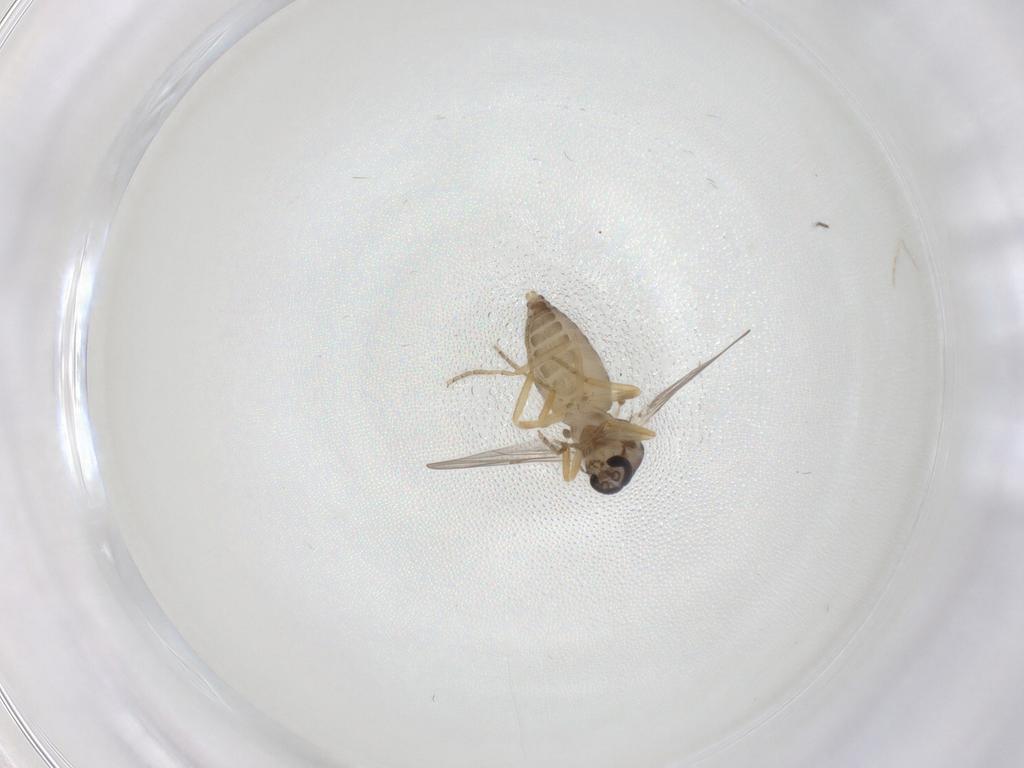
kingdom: Animalia
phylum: Arthropoda
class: Insecta
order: Diptera
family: Ceratopogonidae
